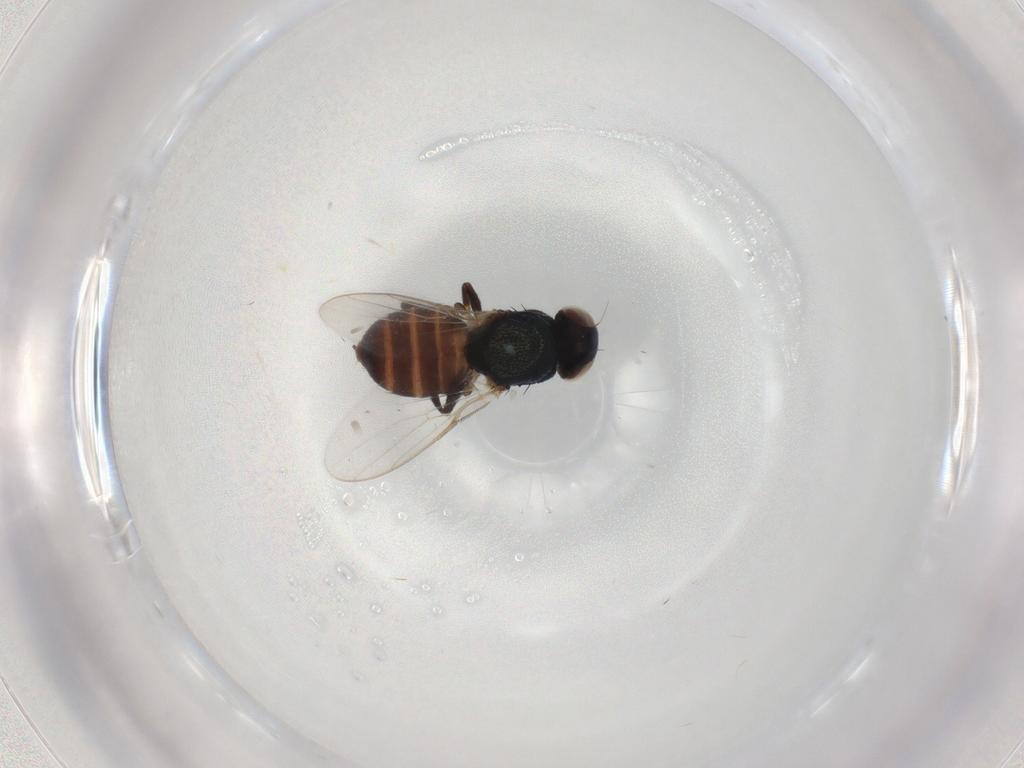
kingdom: Animalia
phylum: Arthropoda
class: Insecta
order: Diptera
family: Chloropidae
